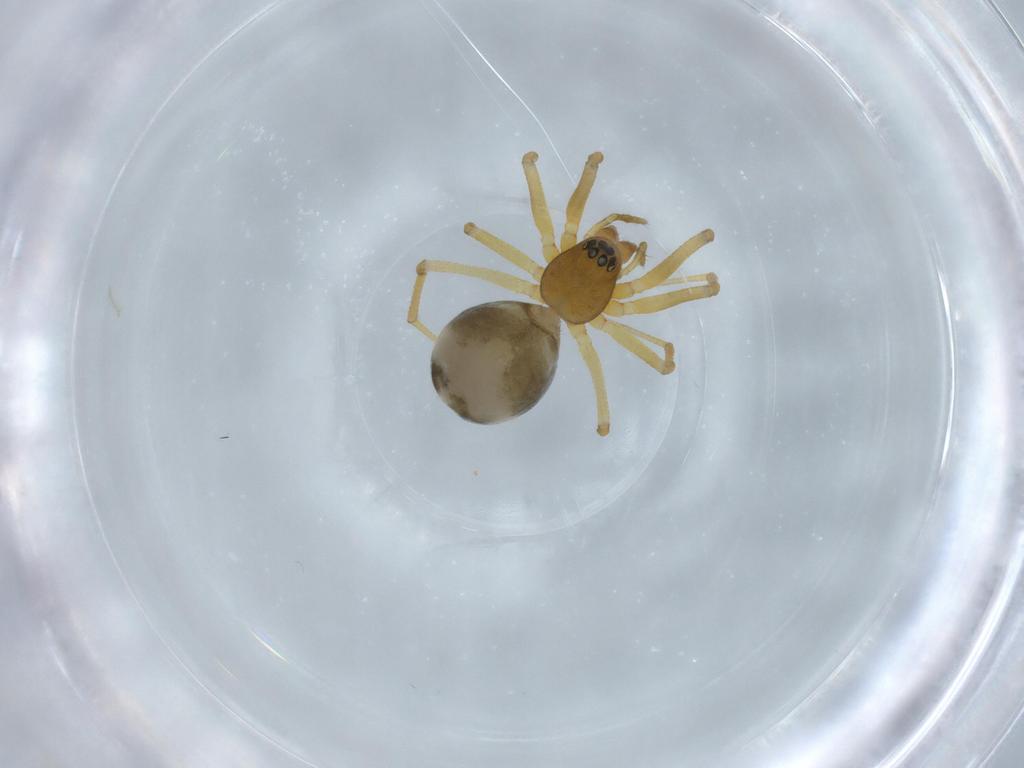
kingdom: Animalia
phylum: Arthropoda
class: Arachnida
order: Araneae
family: Linyphiidae
